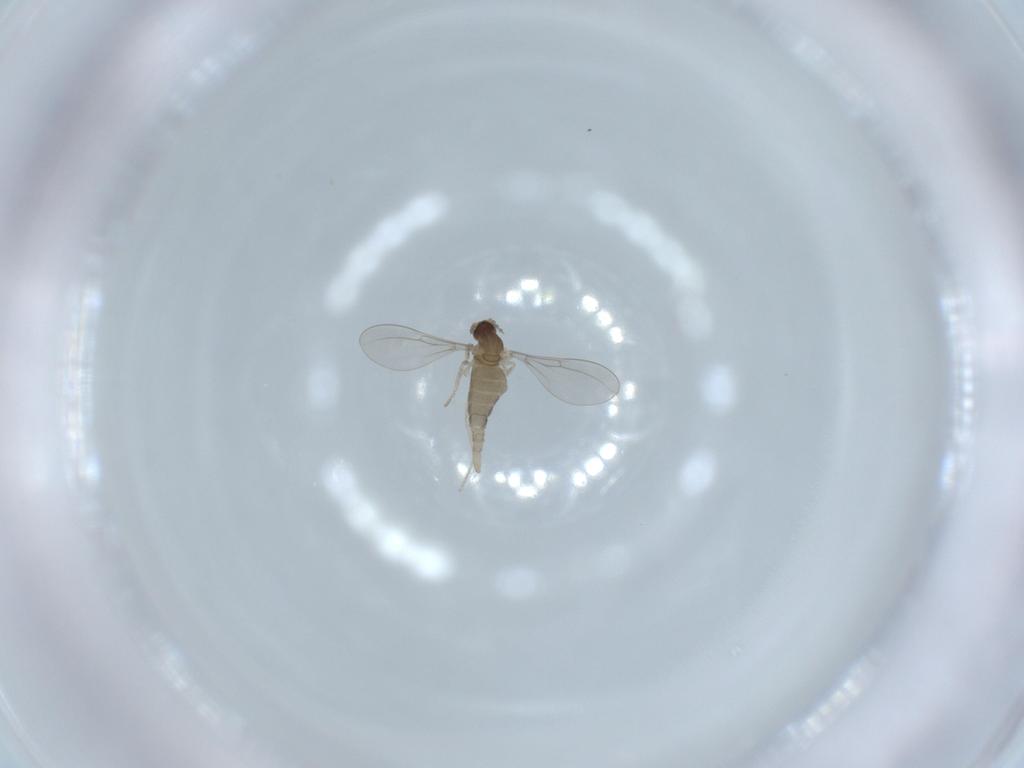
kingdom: Animalia
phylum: Arthropoda
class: Insecta
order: Diptera
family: Cecidomyiidae
